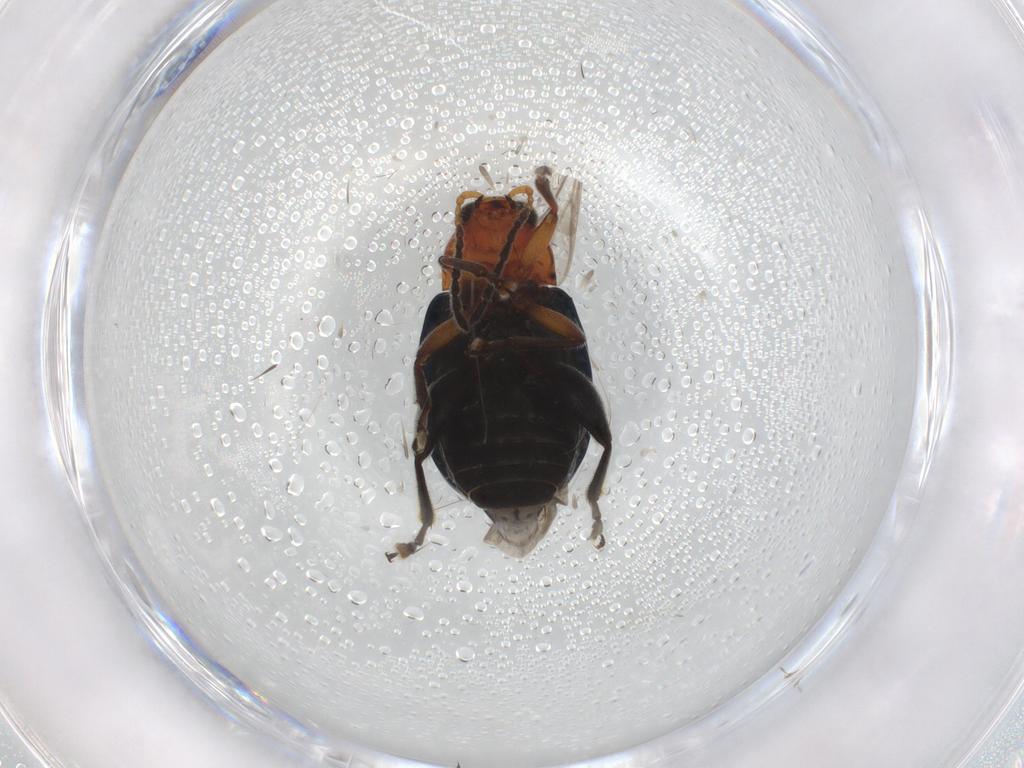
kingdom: Animalia
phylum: Arthropoda
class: Insecta
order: Coleoptera
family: Chrysomelidae
